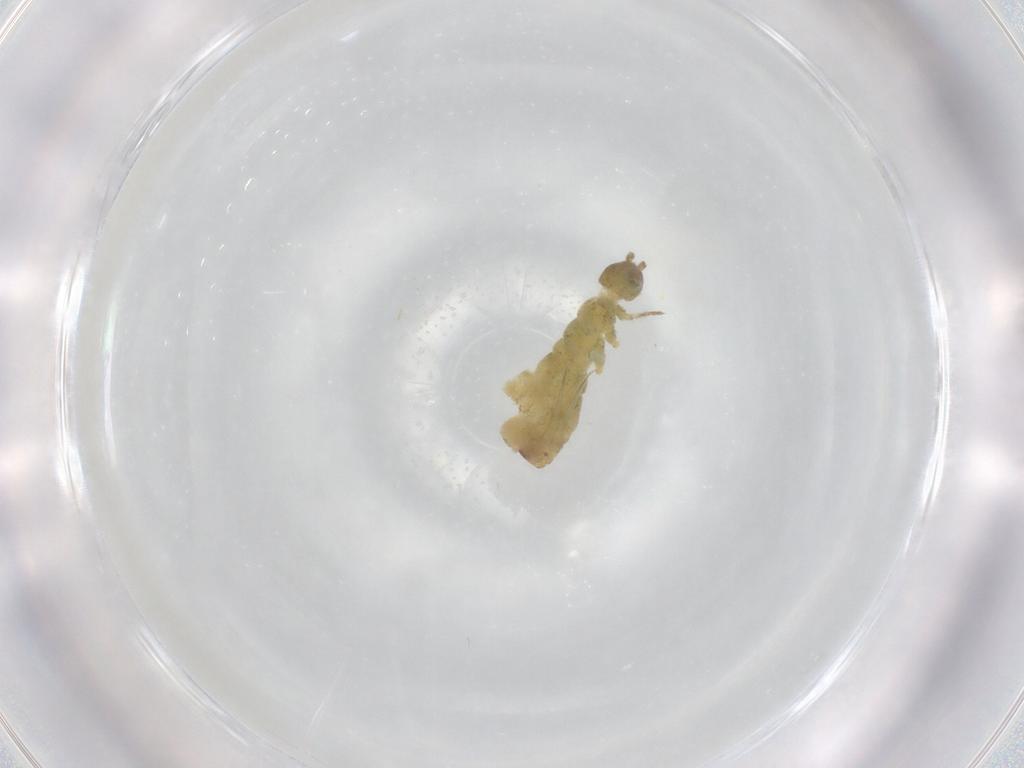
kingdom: Animalia
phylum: Arthropoda
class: Collembola
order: Entomobryomorpha
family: Isotomidae
